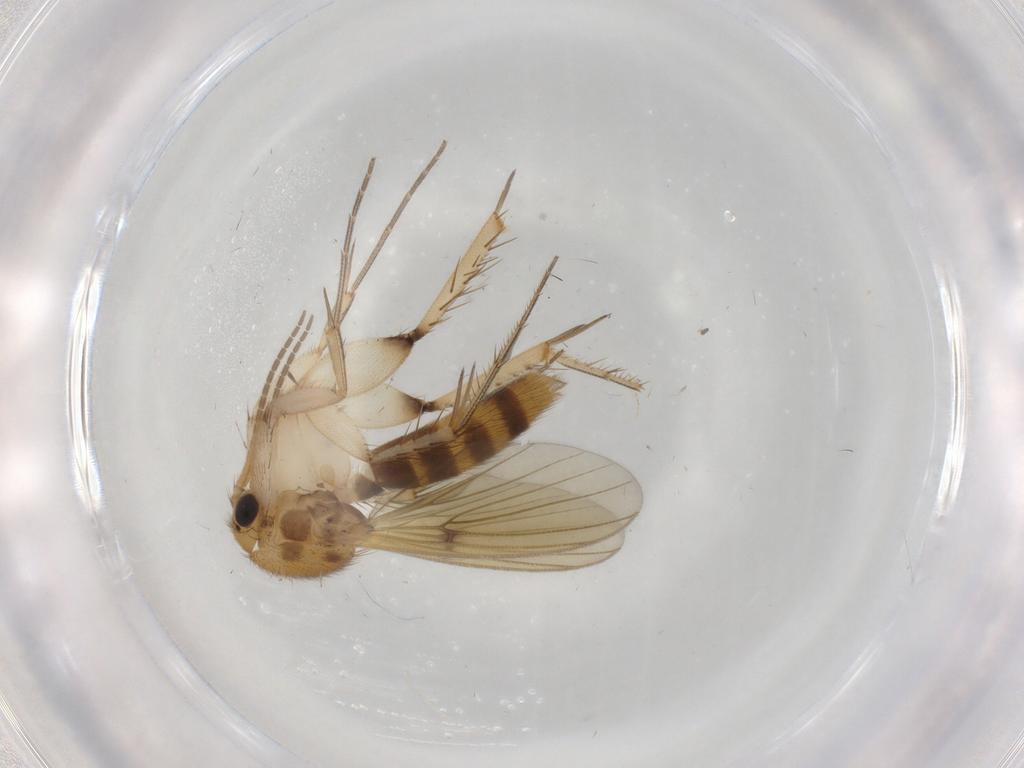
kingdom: Animalia
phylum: Arthropoda
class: Insecta
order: Diptera
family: Mycetophilidae
